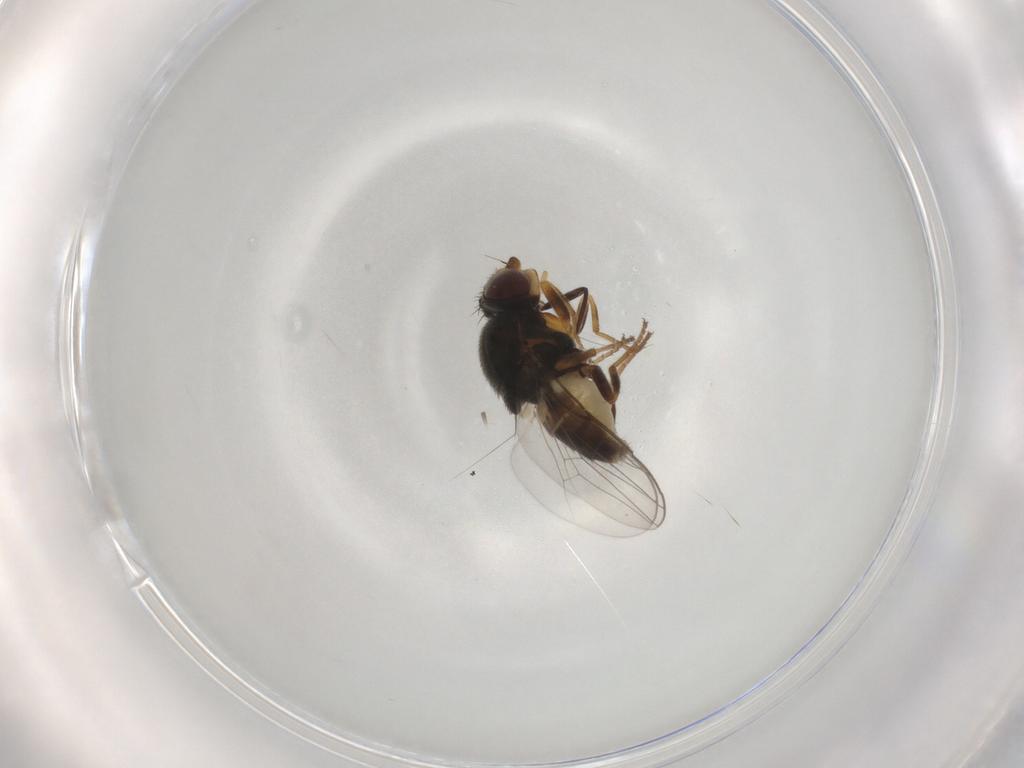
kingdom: Animalia
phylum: Arthropoda
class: Insecta
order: Diptera
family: Chloropidae
